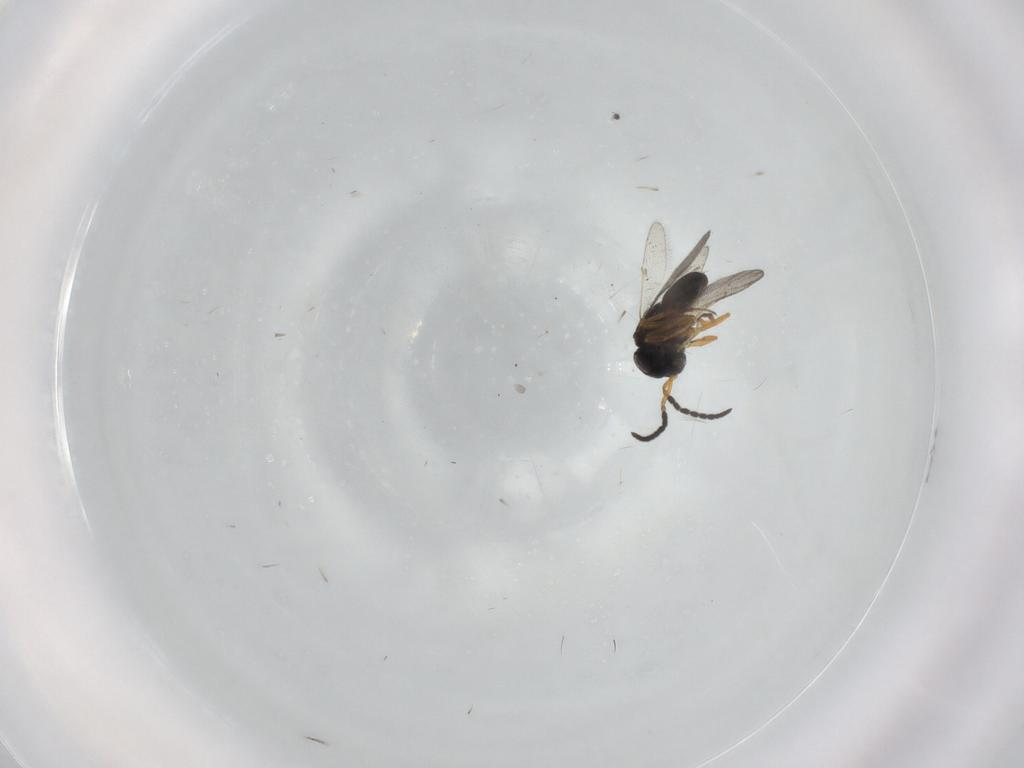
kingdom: Animalia
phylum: Arthropoda
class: Insecta
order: Coleoptera
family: Curculionidae
